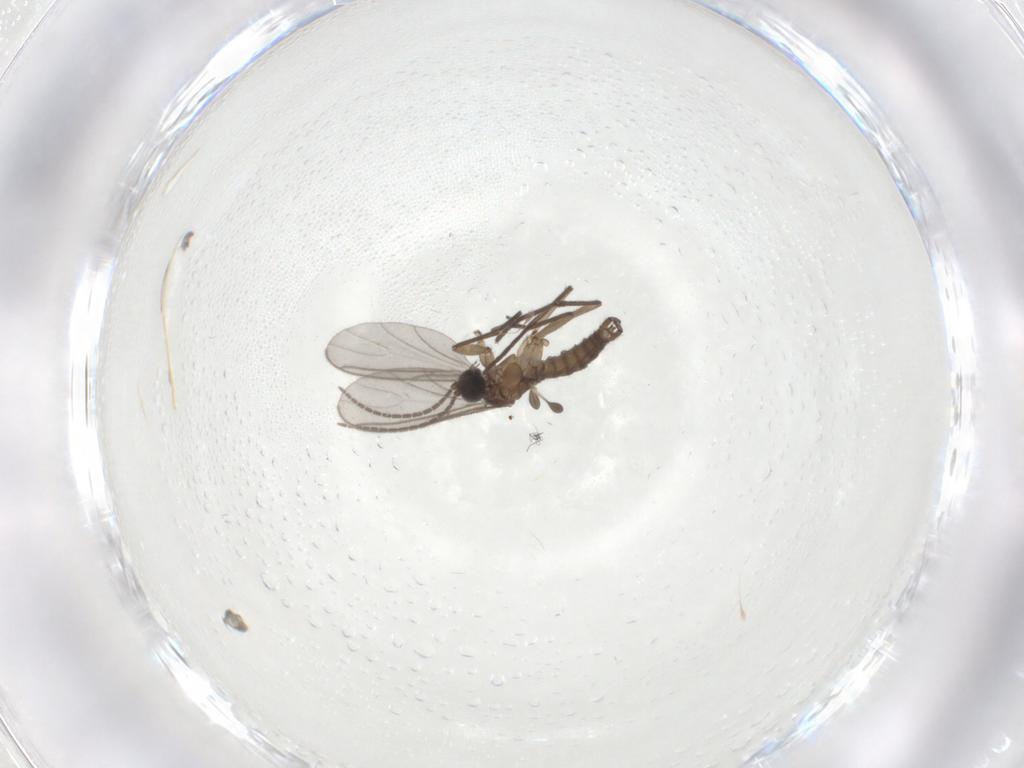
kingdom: Animalia
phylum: Arthropoda
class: Insecta
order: Diptera
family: Sciaridae
